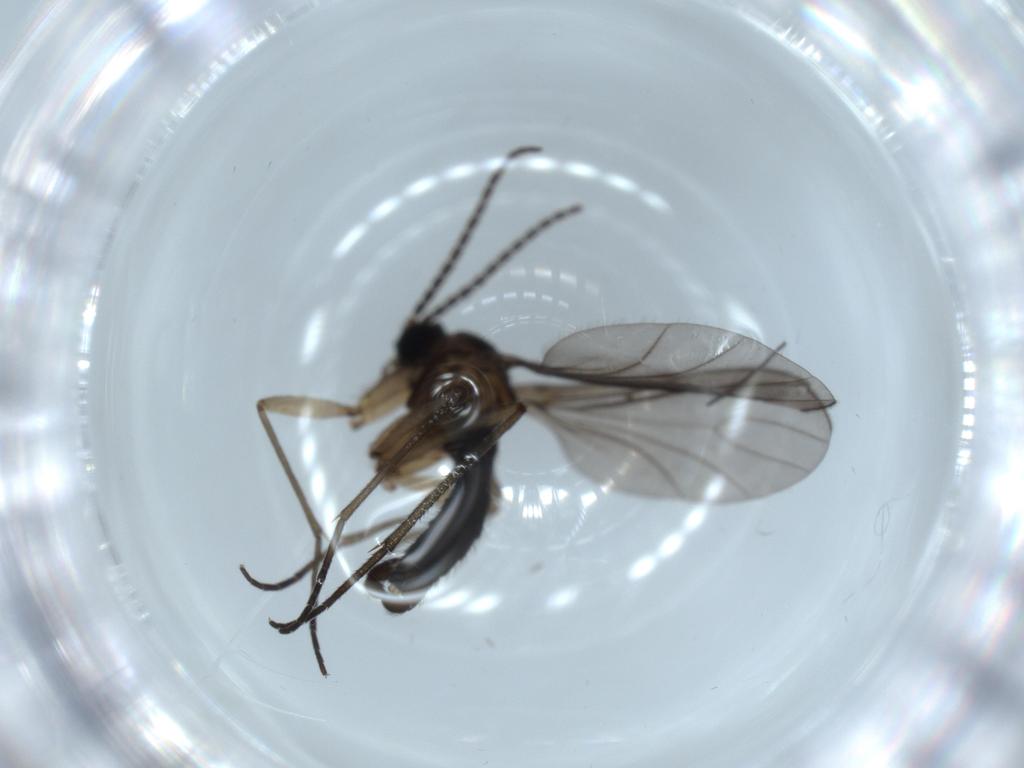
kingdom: Animalia
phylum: Arthropoda
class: Insecta
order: Diptera
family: Sciaridae
